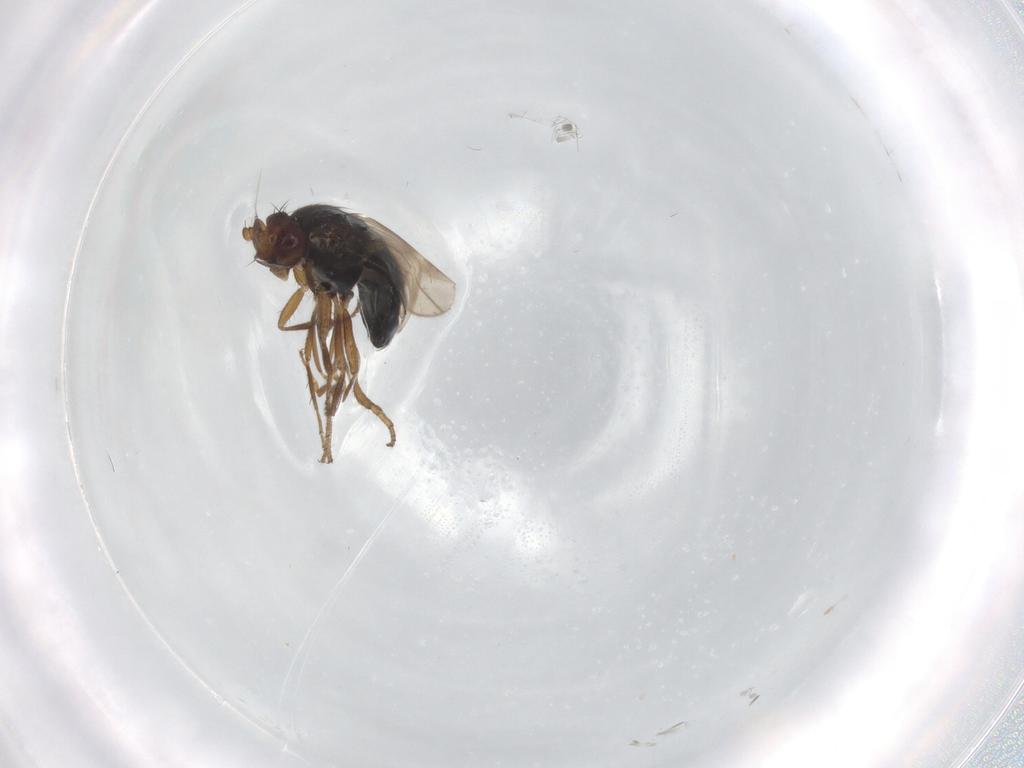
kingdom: Animalia
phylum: Arthropoda
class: Insecta
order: Diptera
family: Sphaeroceridae
